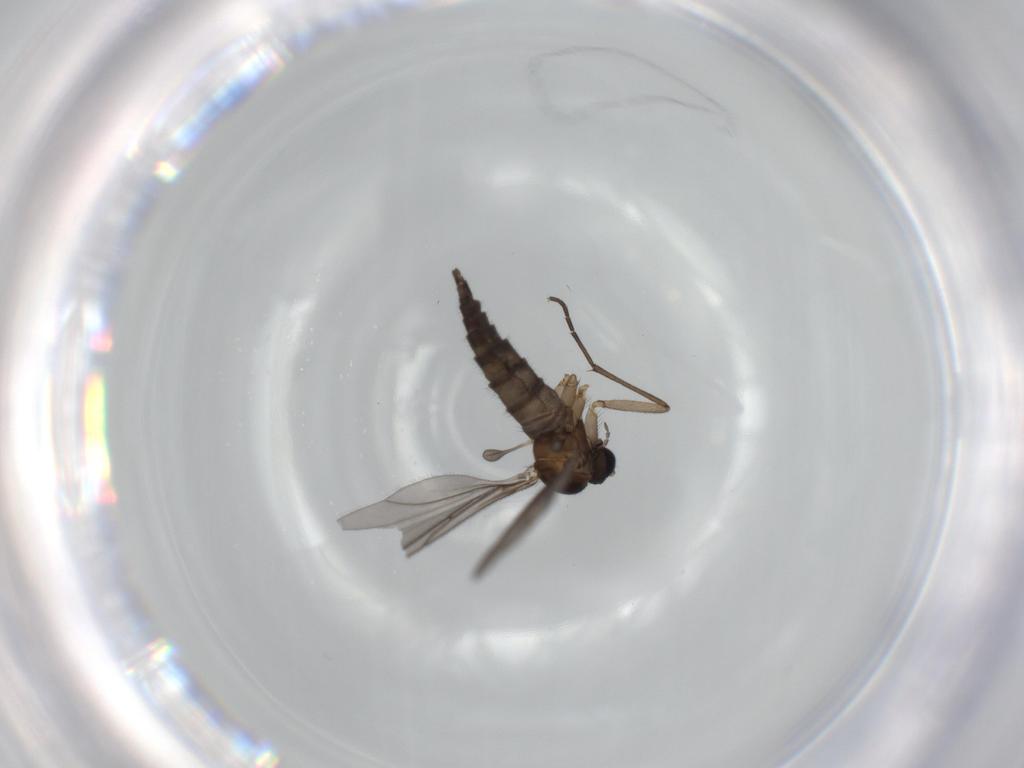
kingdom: Animalia
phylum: Arthropoda
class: Insecta
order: Diptera
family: Sciaridae
